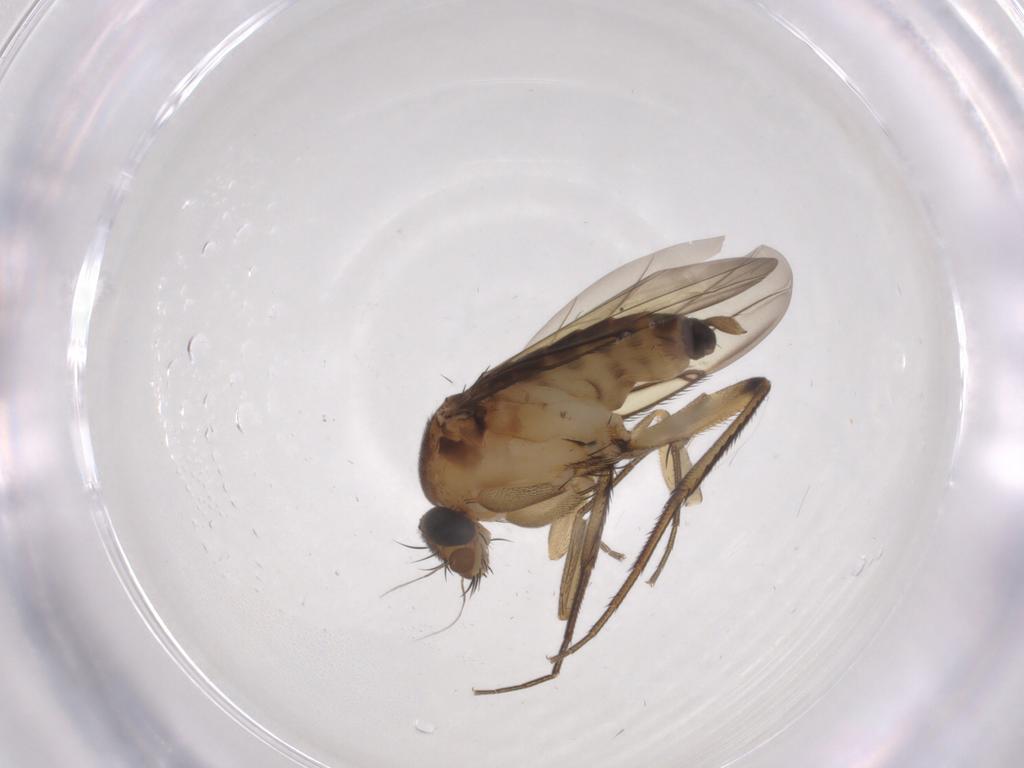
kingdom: Animalia
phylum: Arthropoda
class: Insecta
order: Diptera
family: Phoridae
